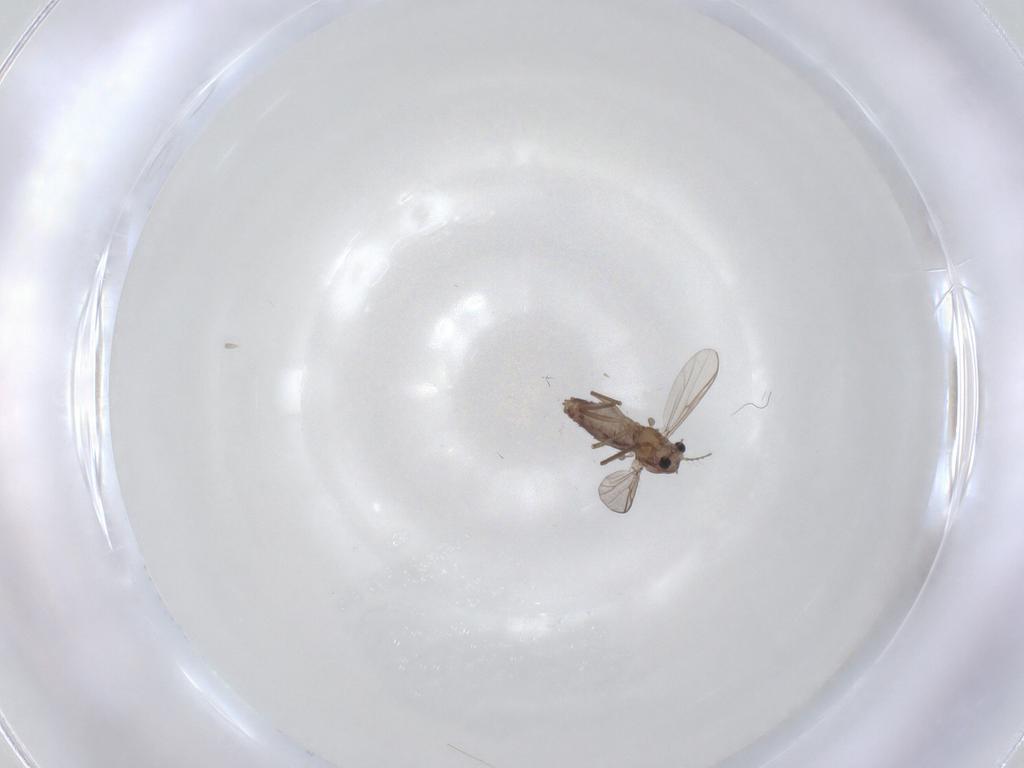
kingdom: Animalia
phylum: Arthropoda
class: Insecta
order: Diptera
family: Chironomidae
